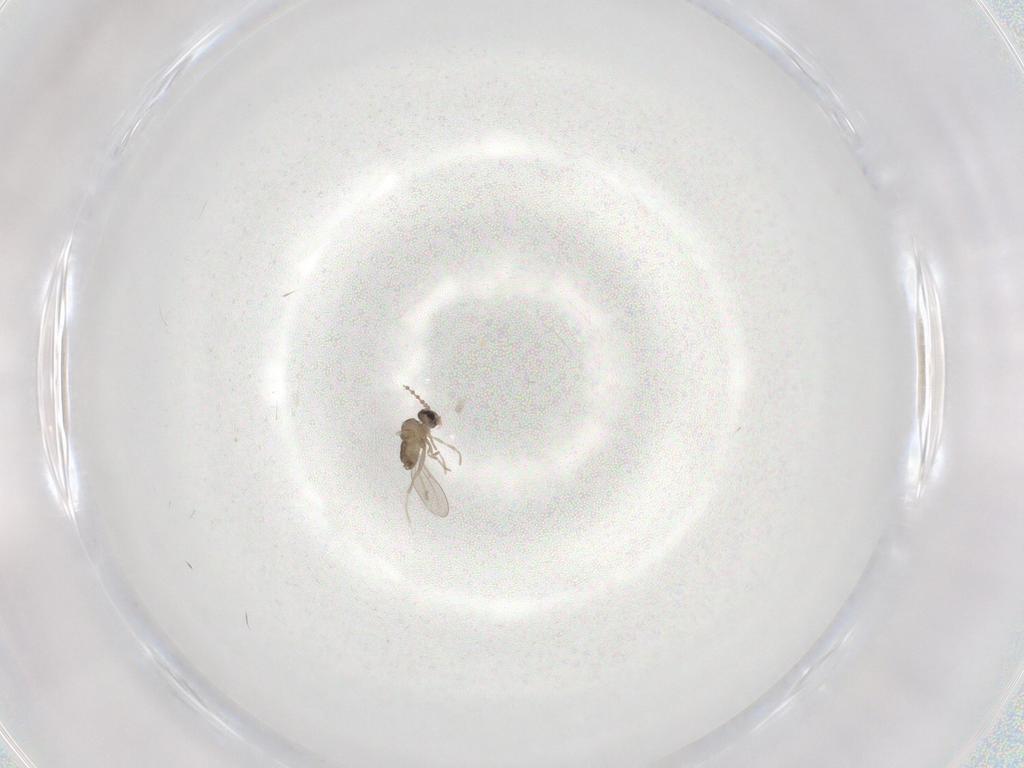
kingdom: Animalia
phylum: Arthropoda
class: Insecta
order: Diptera
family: Cecidomyiidae
